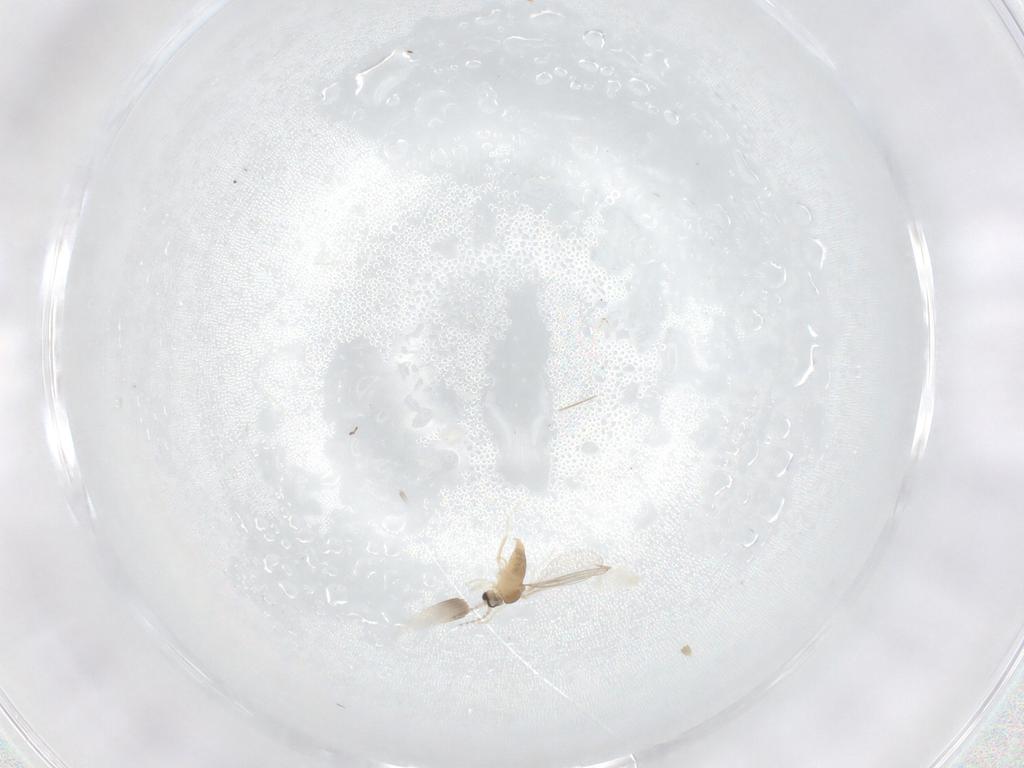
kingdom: Animalia
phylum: Arthropoda
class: Insecta
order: Diptera
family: Cecidomyiidae
